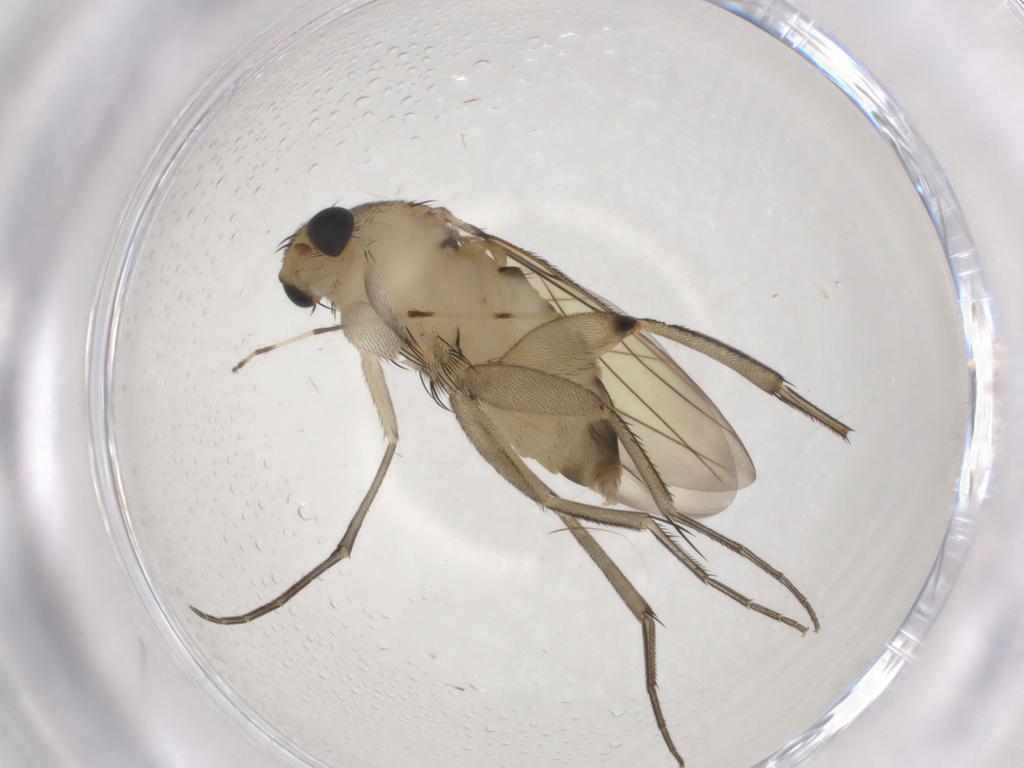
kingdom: Animalia
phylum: Arthropoda
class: Insecta
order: Diptera
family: Phoridae
